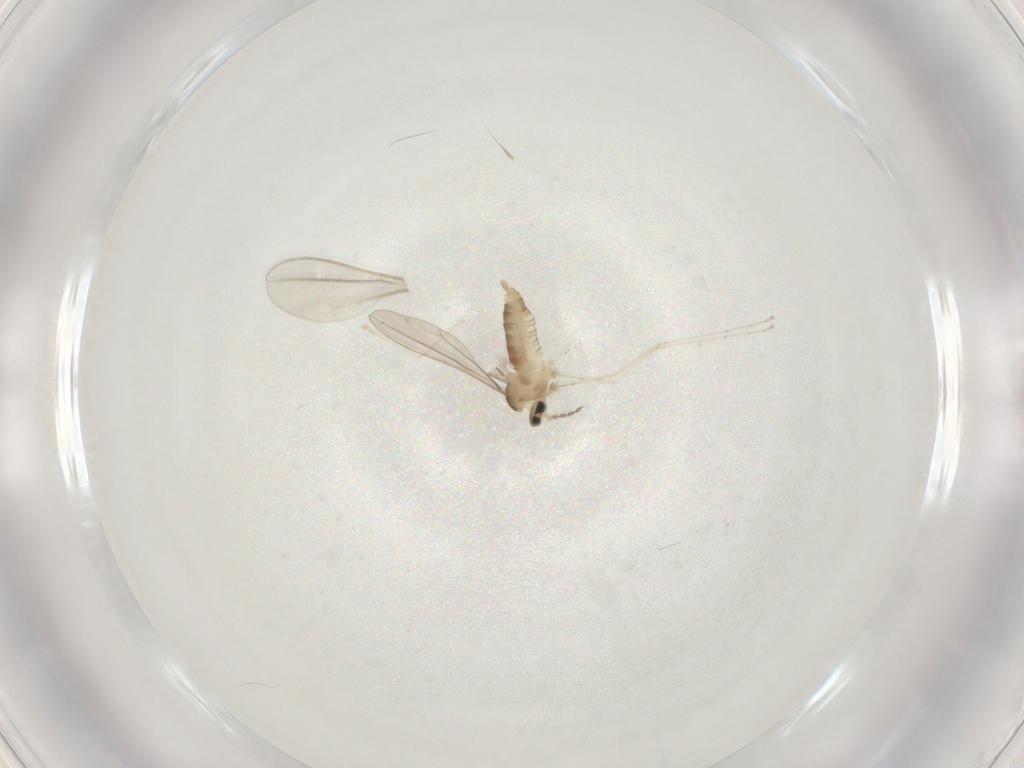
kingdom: Animalia
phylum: Arthropoda
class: Insecta
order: Diptera
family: Cecidomyiidae
